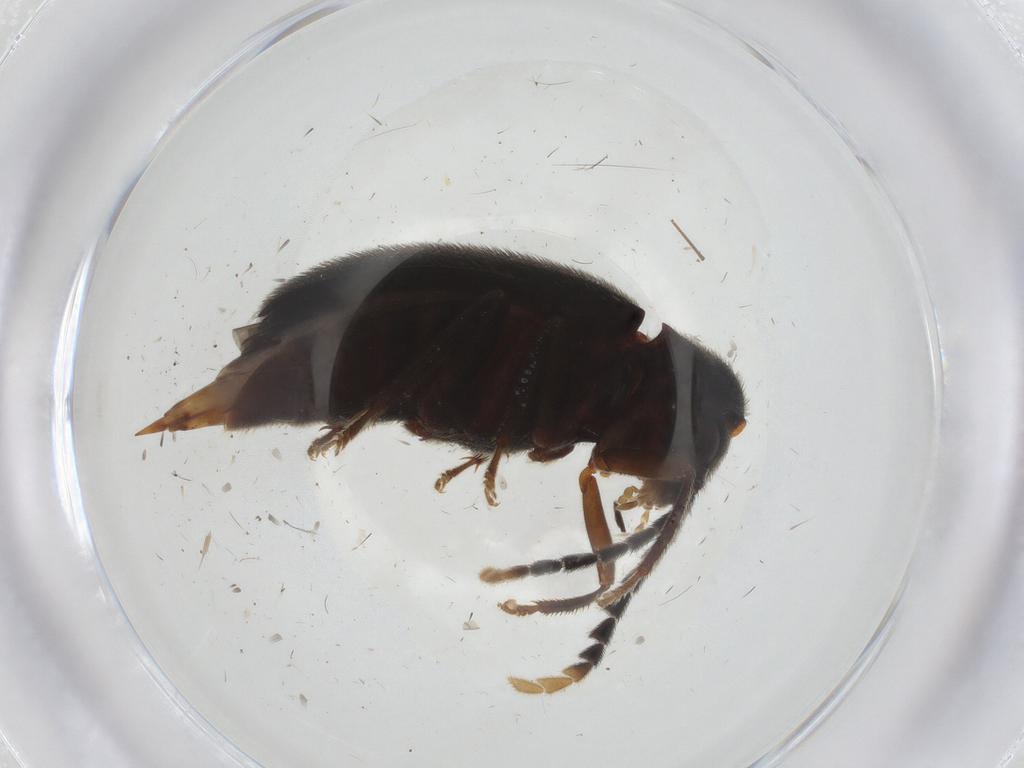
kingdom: Animalia
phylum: Arthropoda
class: Insecta
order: Coleoptera
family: Ptilodactylidae
